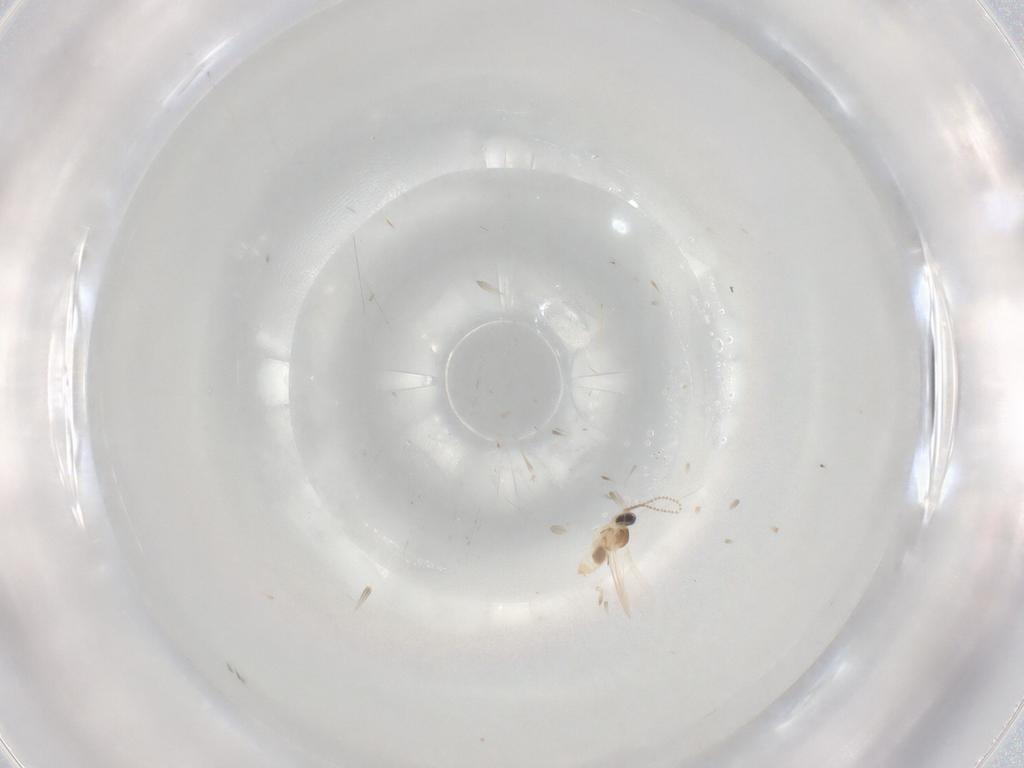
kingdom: Animalia
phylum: Arthropoda
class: Insecta
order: Diptera
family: Cecidomyiidae
